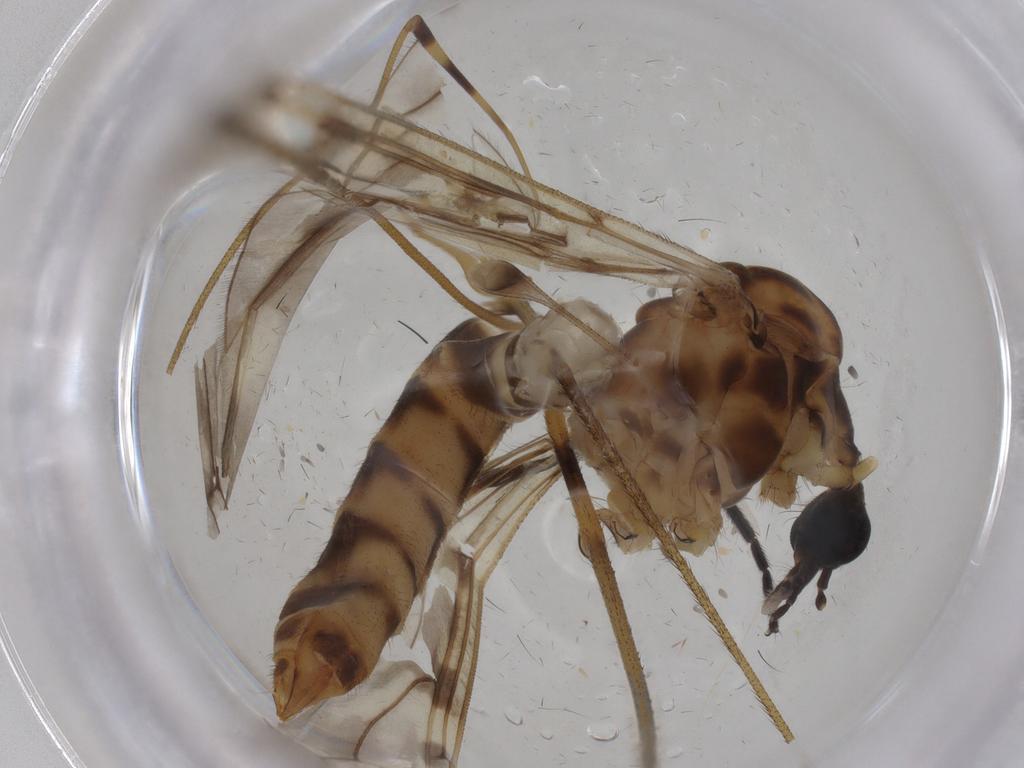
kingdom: Animalia
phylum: Arthropoda
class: Insecta
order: Diptera
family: Limoniidae
